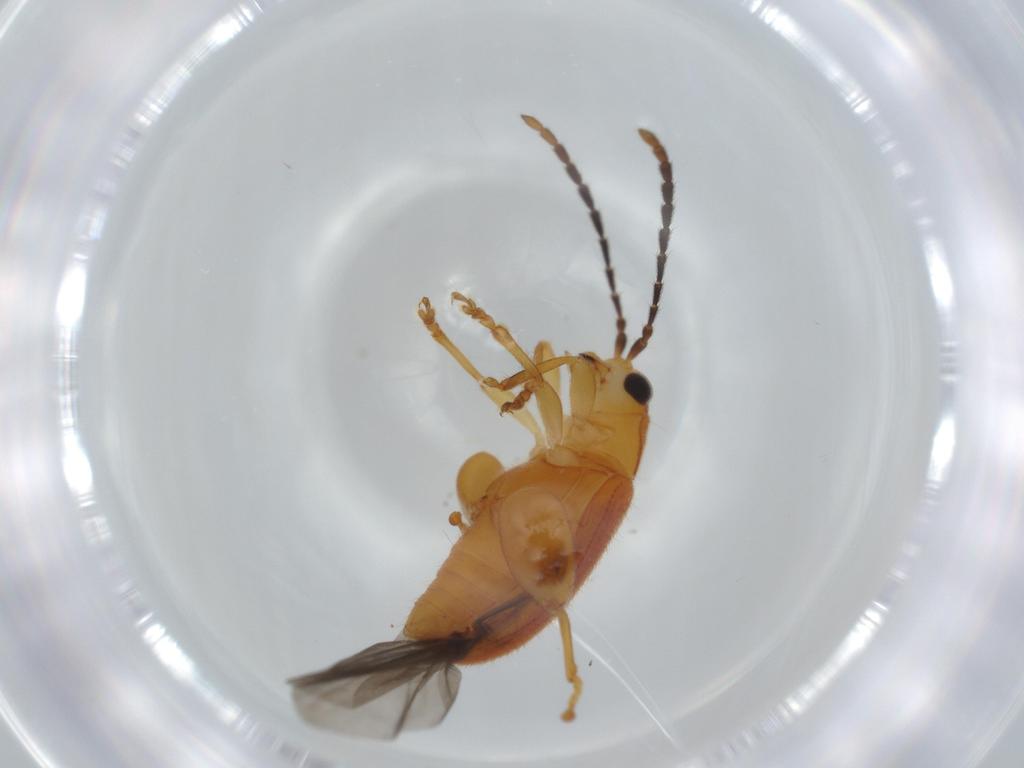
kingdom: Animalia
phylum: Arthropoda
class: Insecta
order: Coleoptera
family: Chrysomelidae
